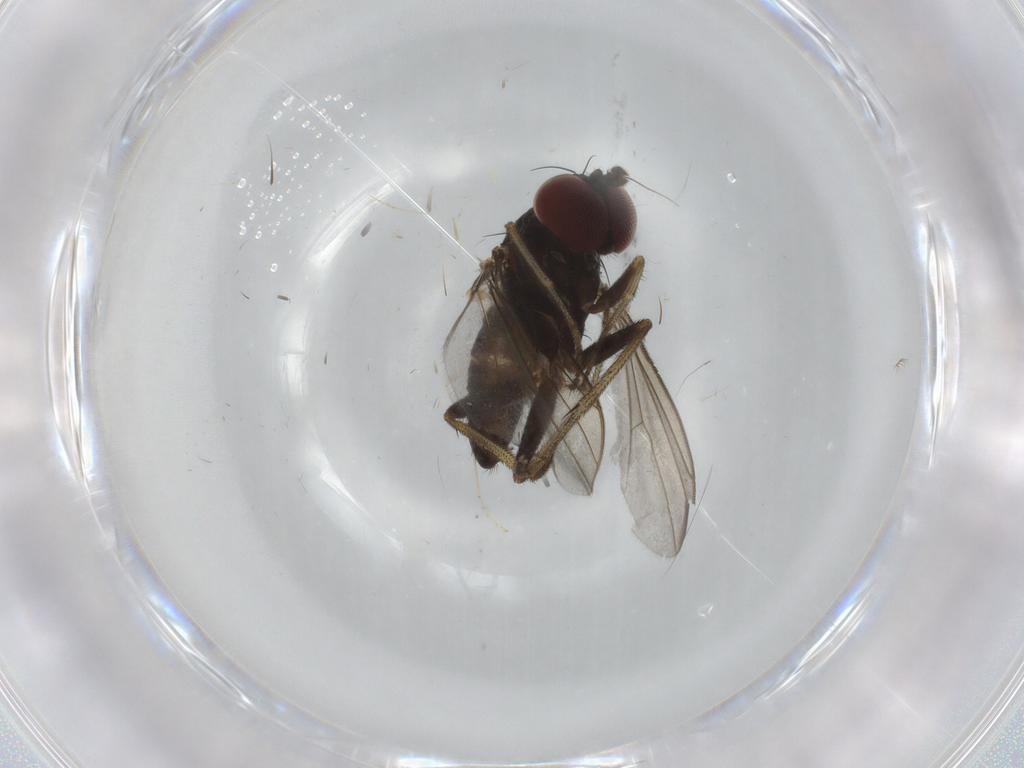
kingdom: Animalia
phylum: Arthropoda
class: Insecta
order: Diptera
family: Dolichopodidae
